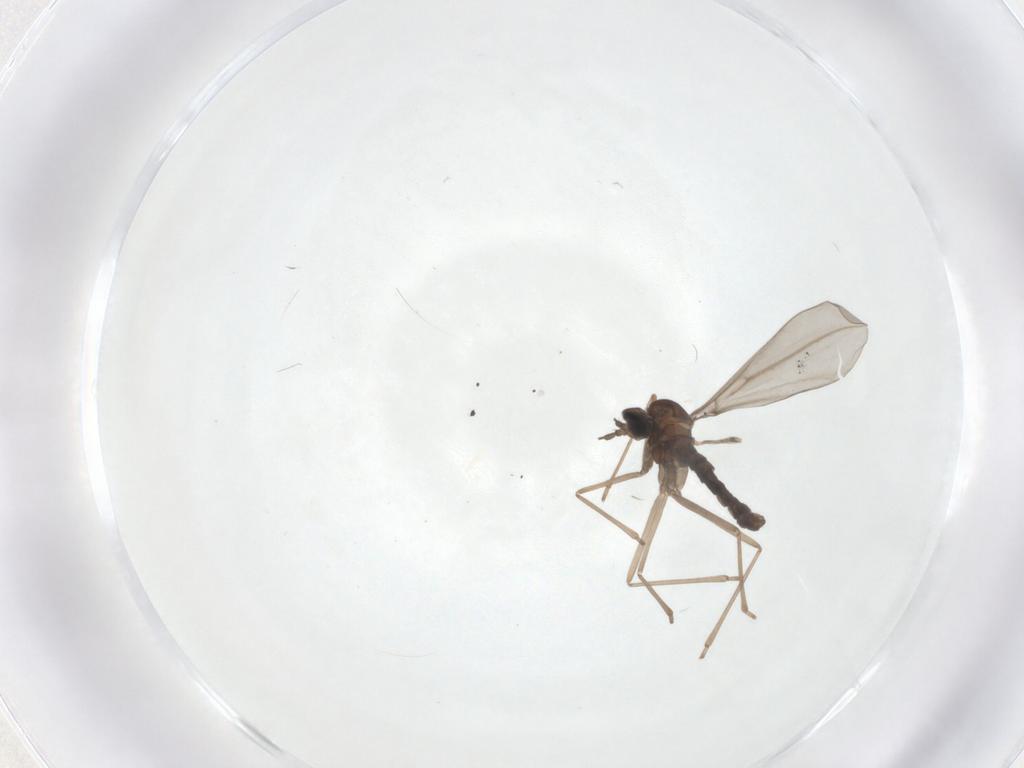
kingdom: Animalia
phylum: Arthropoda
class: Insecta
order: Diptera
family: Cecidomyiidae
